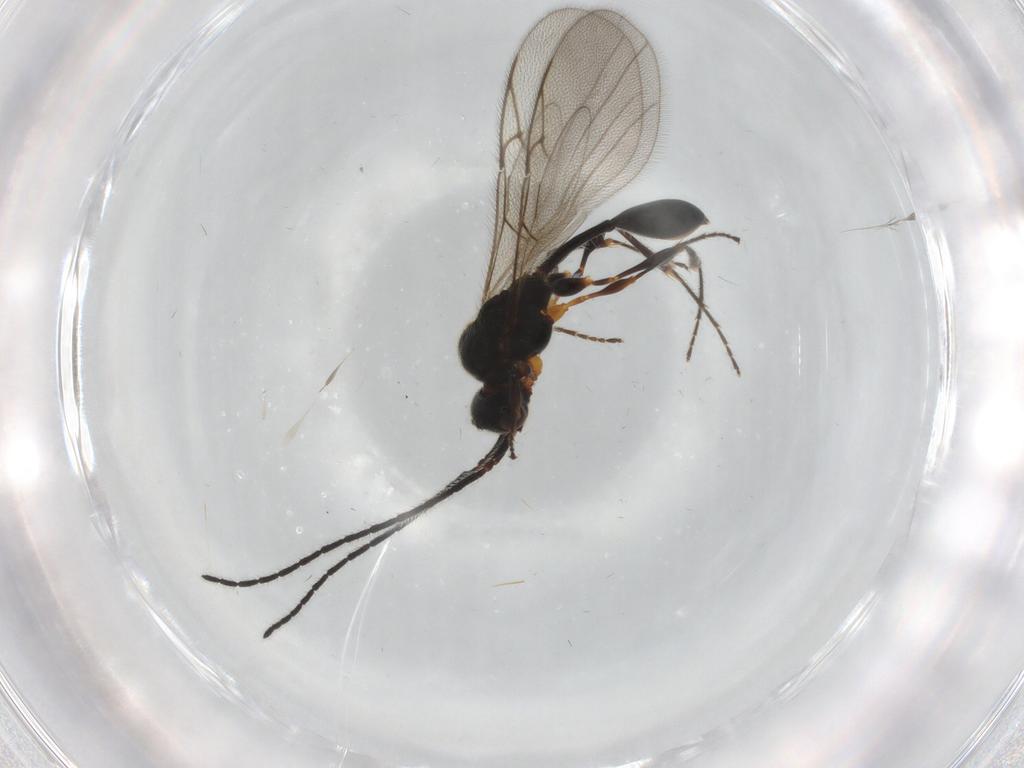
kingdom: Animalia
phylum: Arthropoda
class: Insecta
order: Hymenoptera
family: Diapriidae
